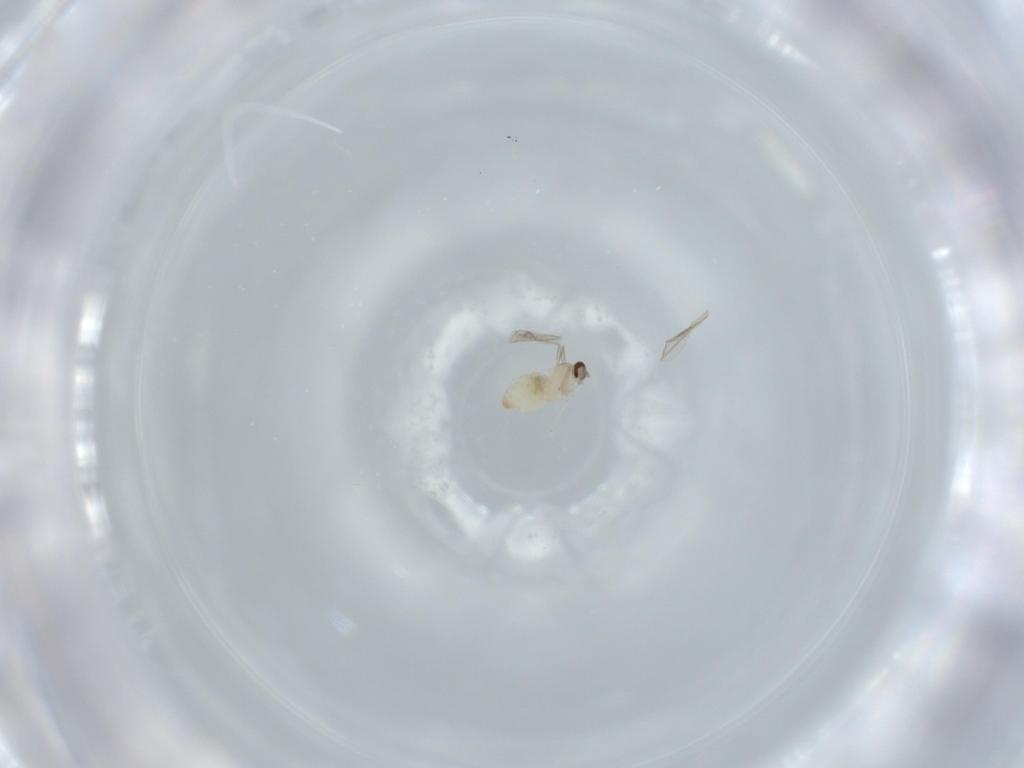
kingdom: Animalia
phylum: Arthropoda
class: Insecta
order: Diptera
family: Cecidomyiidae
